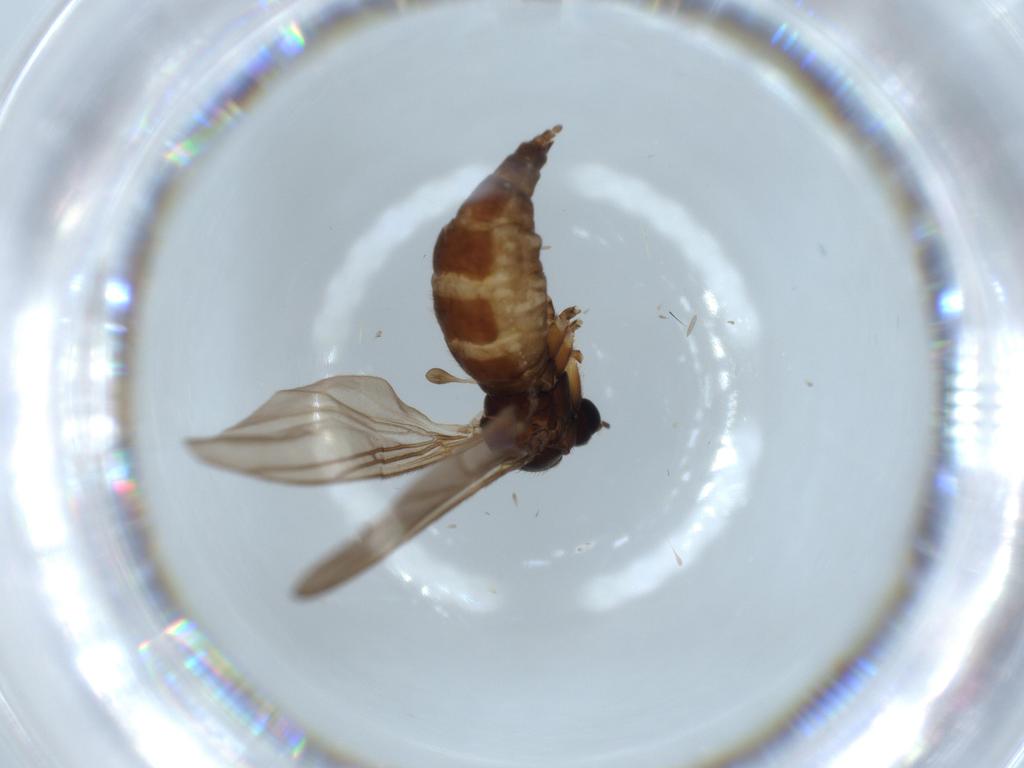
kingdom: Animalia
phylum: Arthropoda
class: Insecta
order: Diptera
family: Sciaridae
